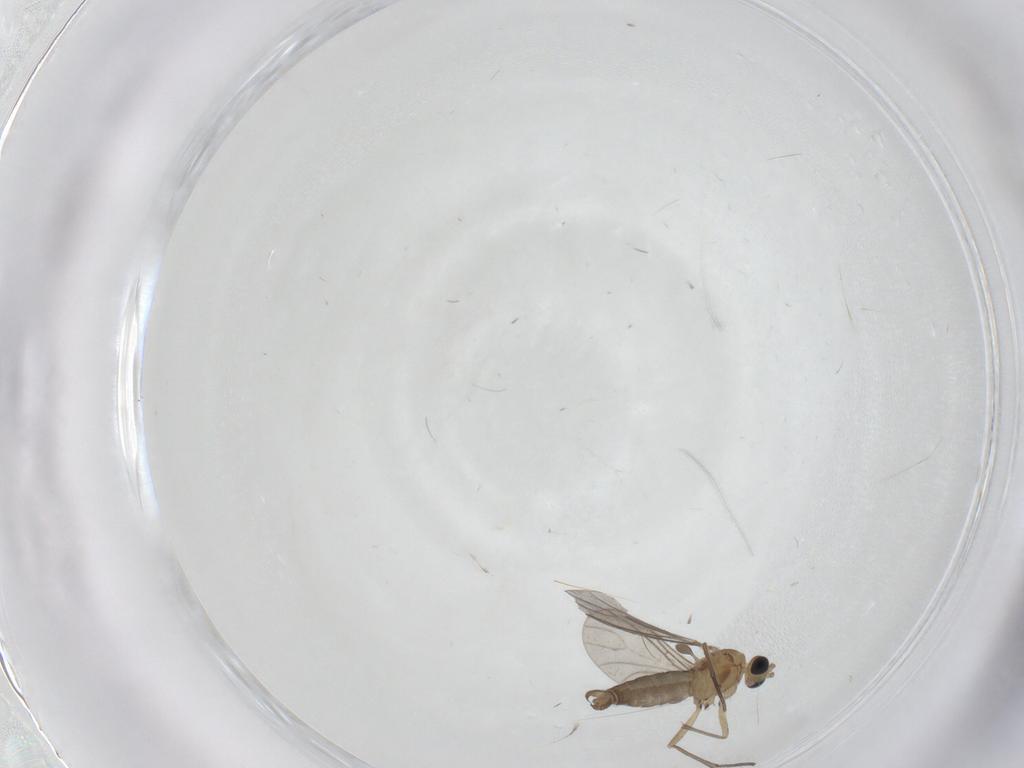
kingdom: Animalia
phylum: Arthropoda
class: Insecta
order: Diptera
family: Sciaridae
